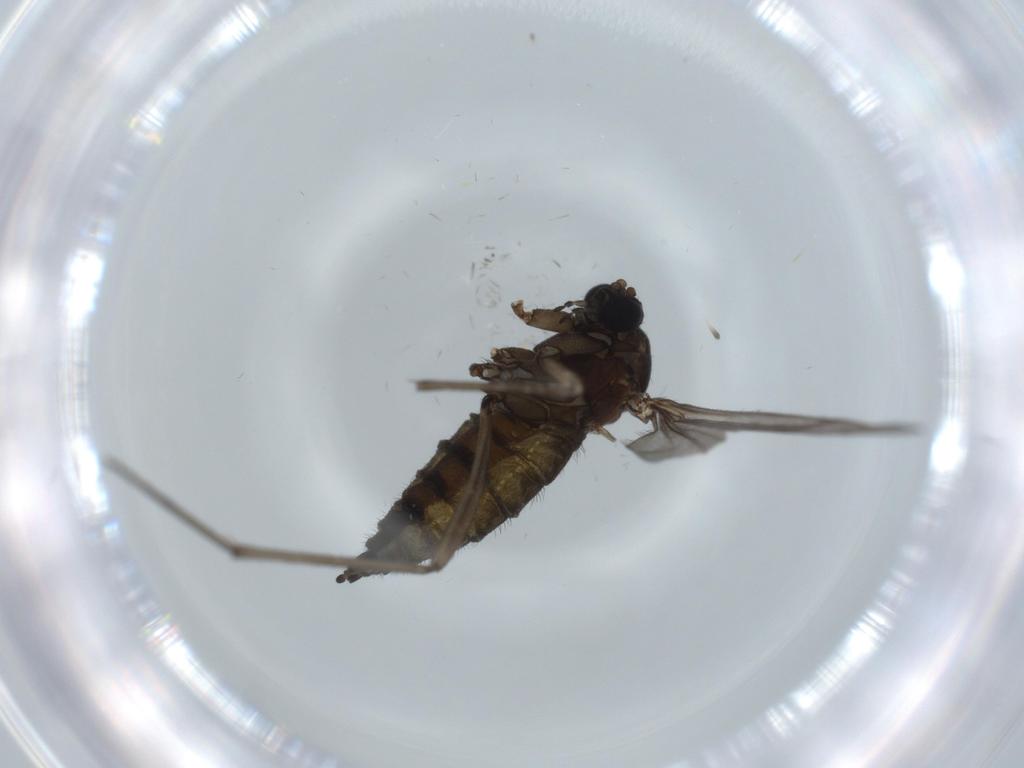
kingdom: Animalia
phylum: Arthropoda
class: Insecta
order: Diptera
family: Sciaridae
